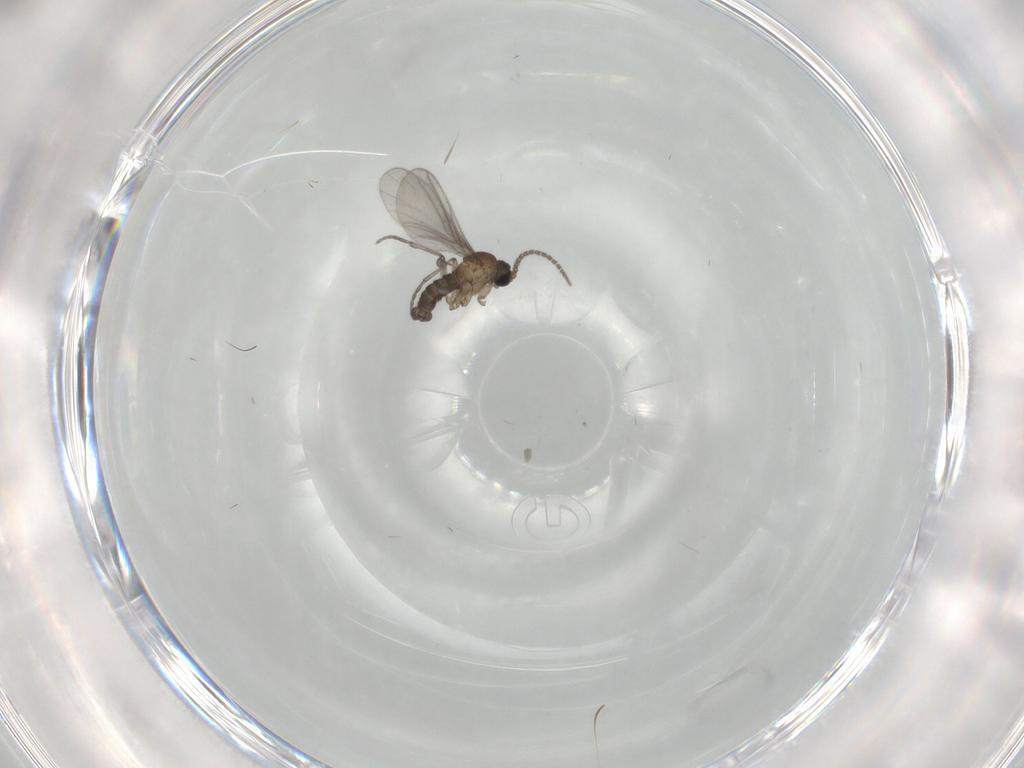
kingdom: Animalia
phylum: Arthropoda
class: Insecta
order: Diptera
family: Sciaridae
